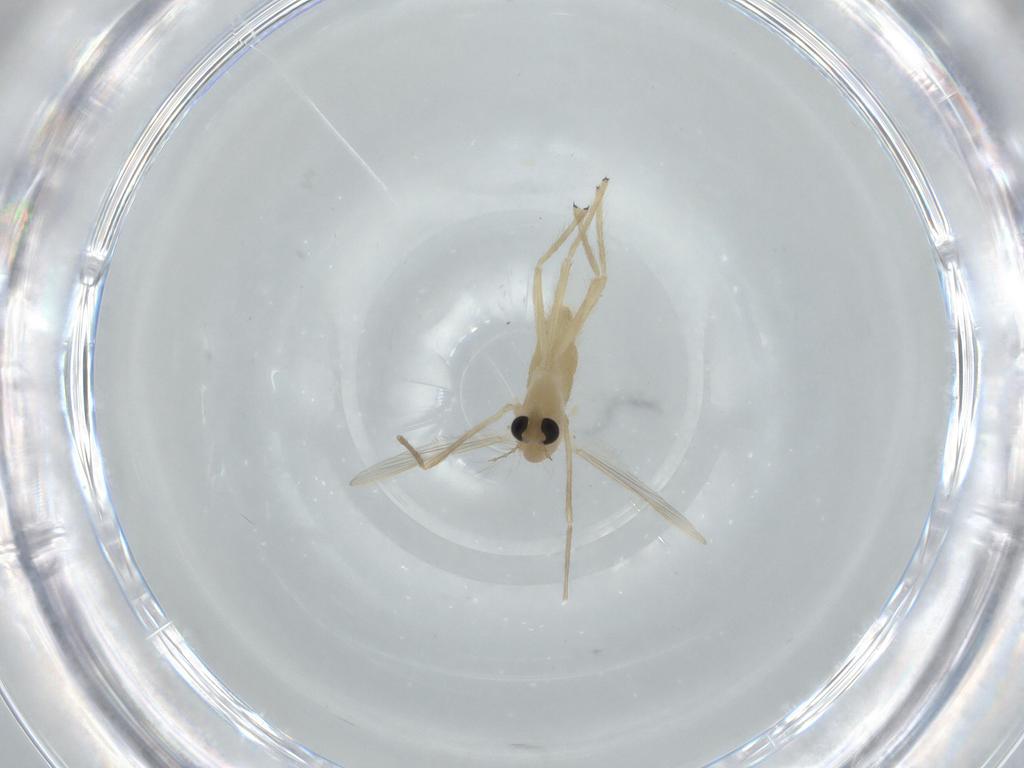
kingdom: Animalia
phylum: Arthropoda
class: Insecta
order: Diptera
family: Chironomidae
